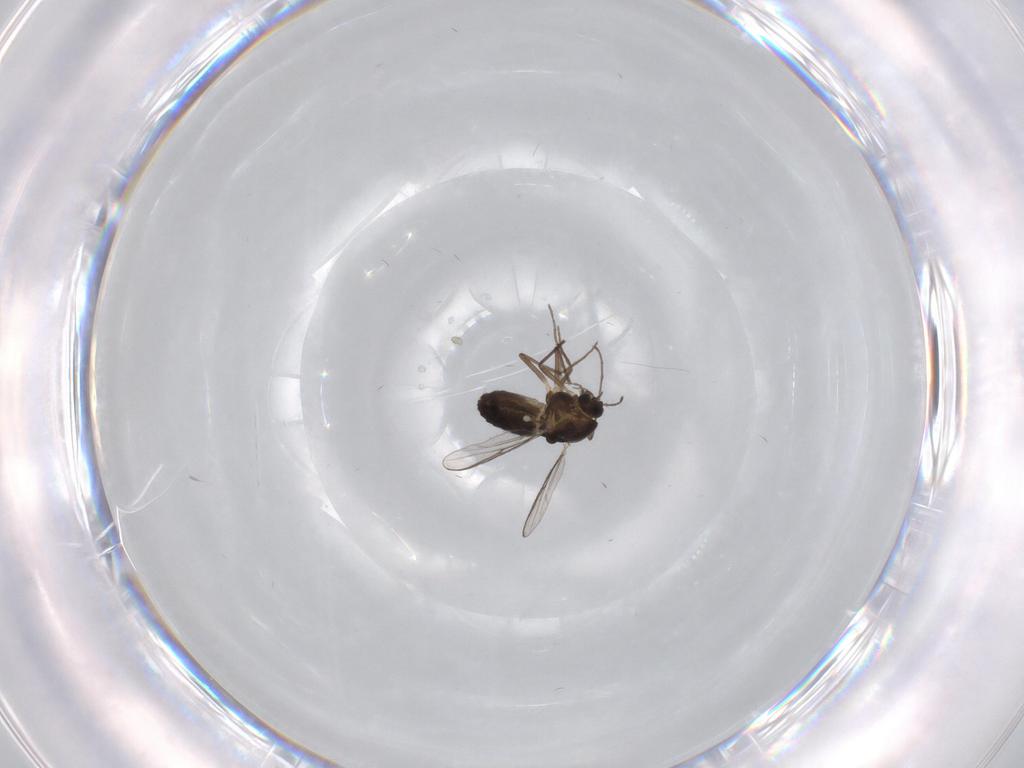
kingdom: Animalia
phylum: Arthropoda
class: Insecta
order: Diptera
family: Chironomidae
